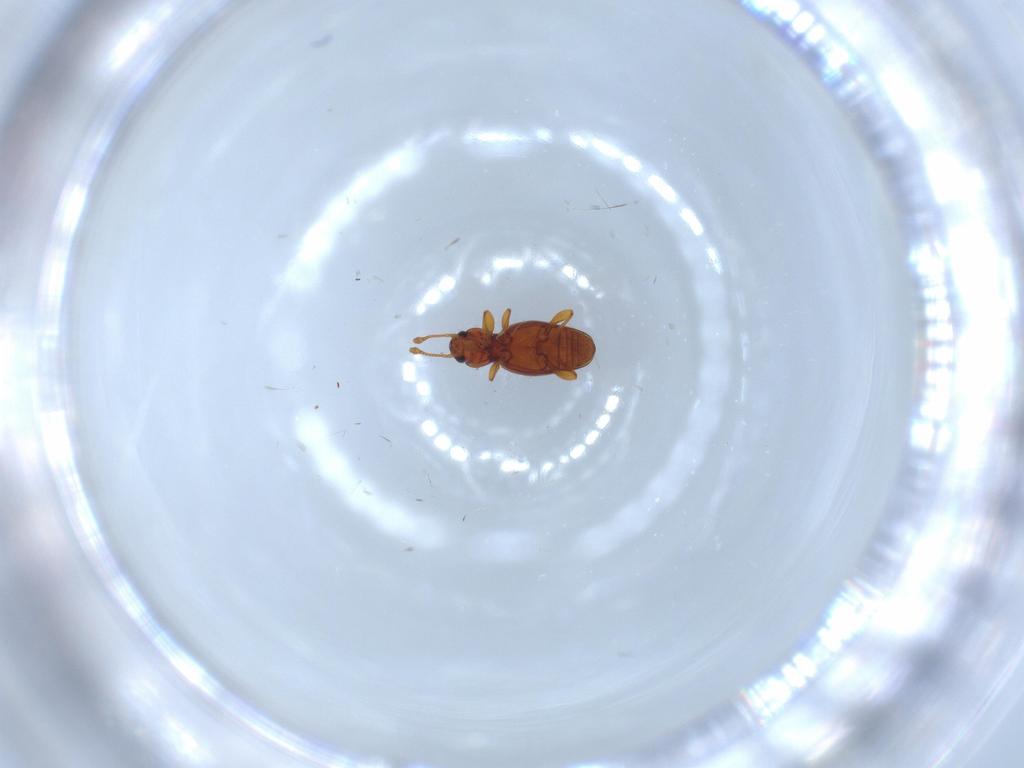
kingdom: Animalia
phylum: Arthropoda
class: Insecta
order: Coleoptera
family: Endomychidae
